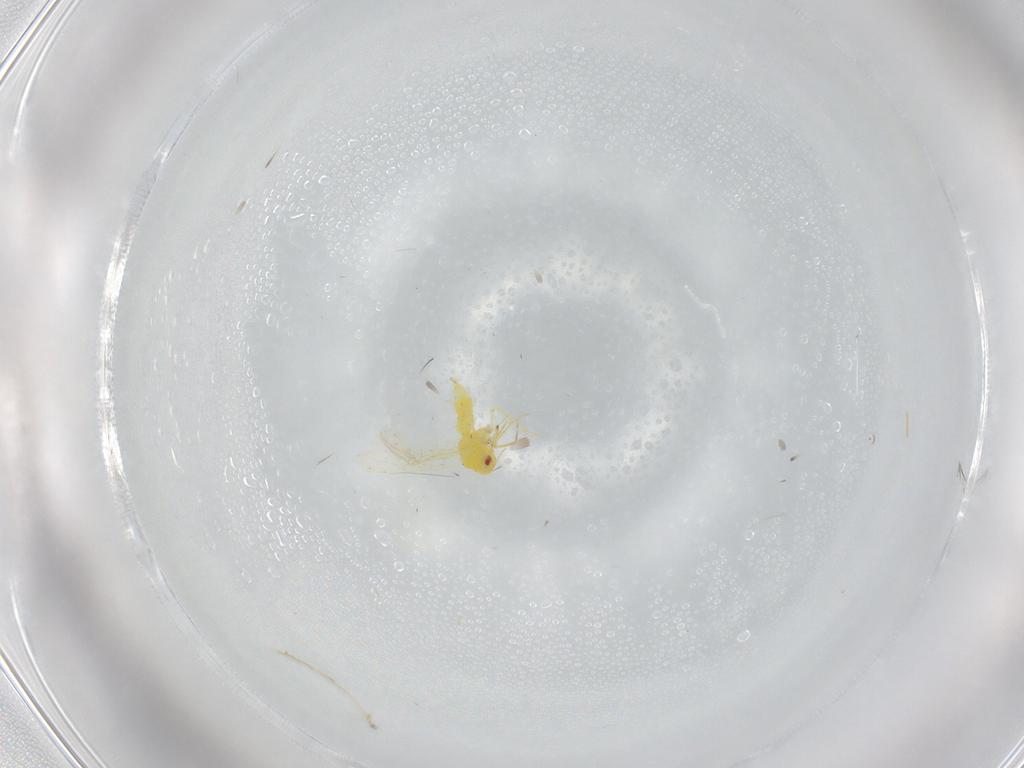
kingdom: Animalia
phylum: Arthropoda
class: Insecta
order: Hemiptera
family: Aleyrodidae
